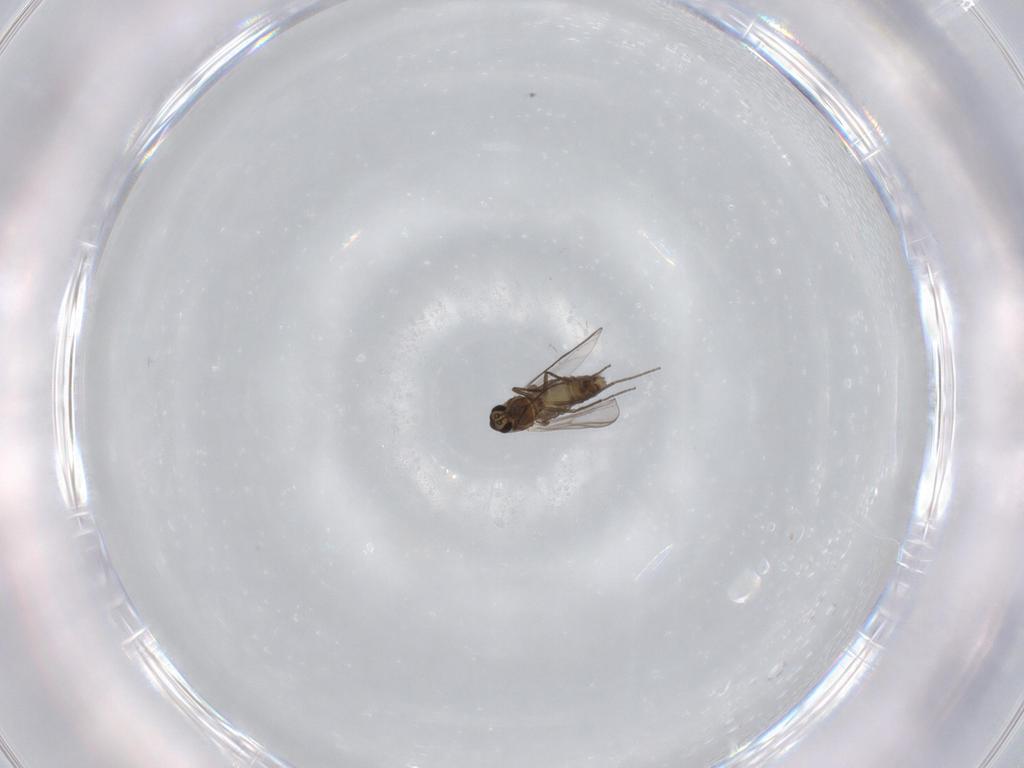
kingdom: Animalia
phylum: Arthropoda
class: Insecta
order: Diptera
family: Chironomidae
